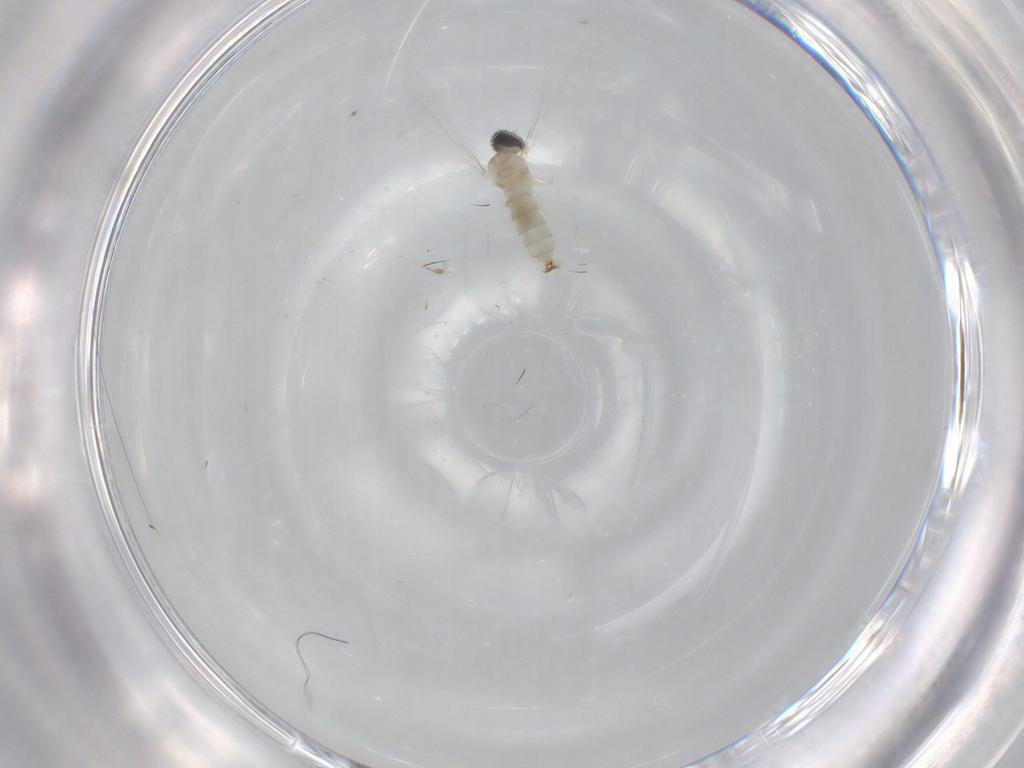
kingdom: Animalia
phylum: Arthropoda
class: Insecta
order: Diptera
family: Cecidomyiidae
